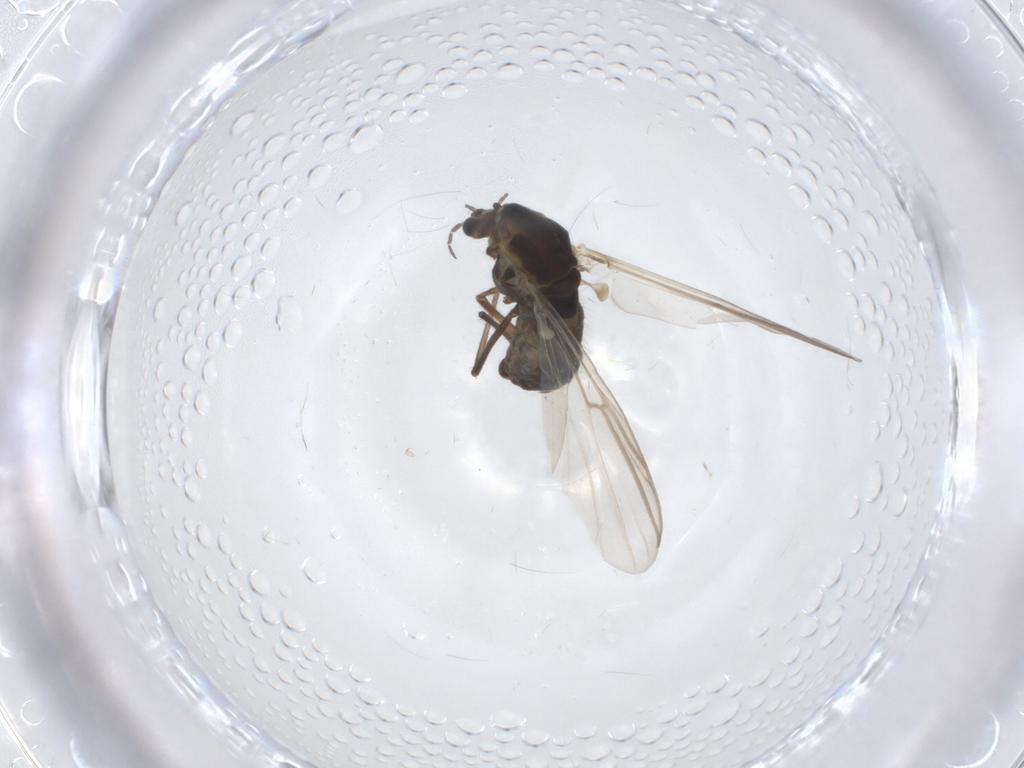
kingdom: Animalia
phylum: Arthropoda
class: Insecta
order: Diptera
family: Chironomidae
